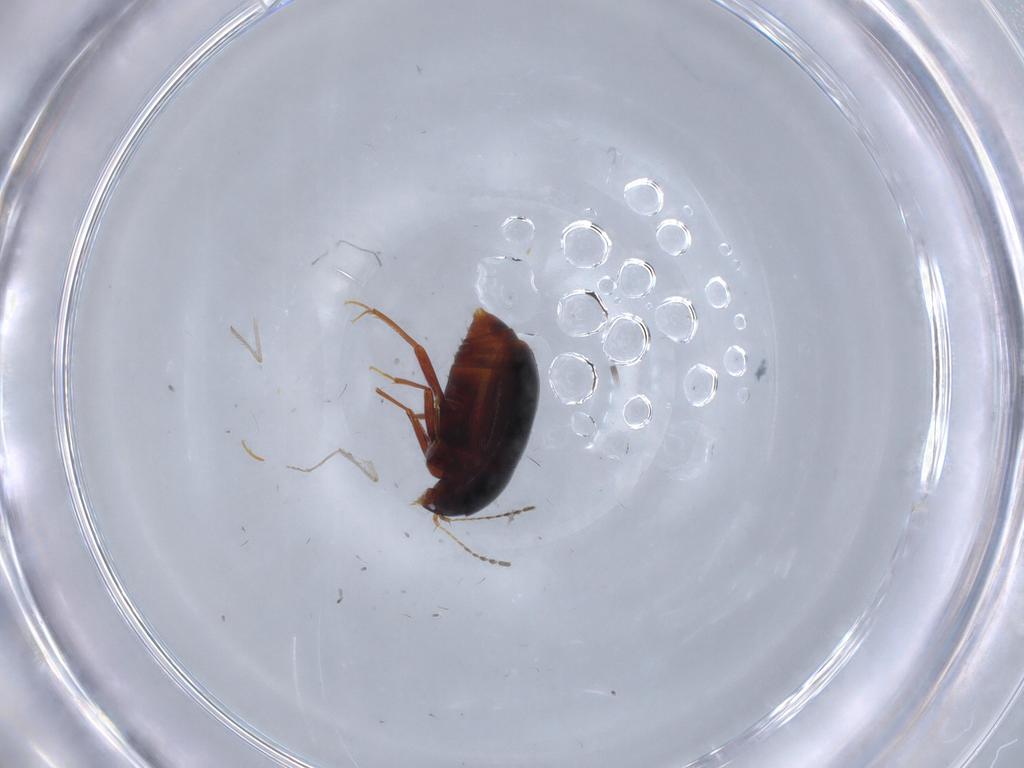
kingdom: Animalia
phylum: Arthropoda
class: Insecta
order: Coleoptera
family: Staphylinidae
